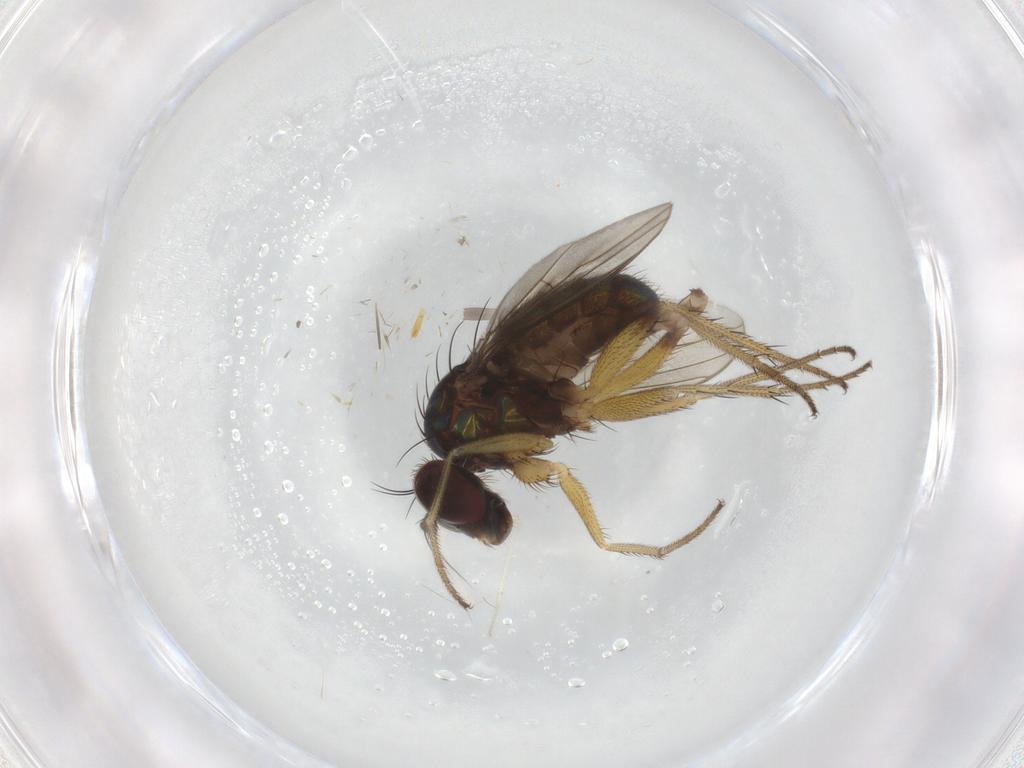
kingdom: Animalia
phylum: Arthropoda
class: Insecta
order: Diptera
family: Dolichopodidae
